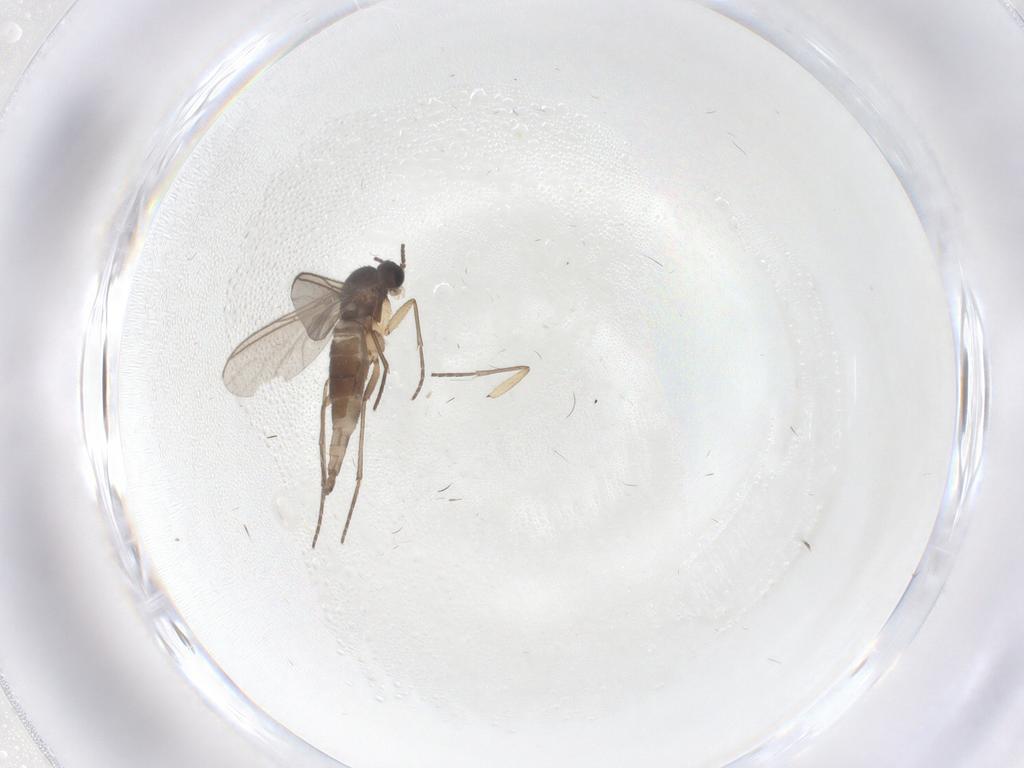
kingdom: Animalia
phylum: Arthropoda
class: Insecta
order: Diptera
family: Sciaridae
